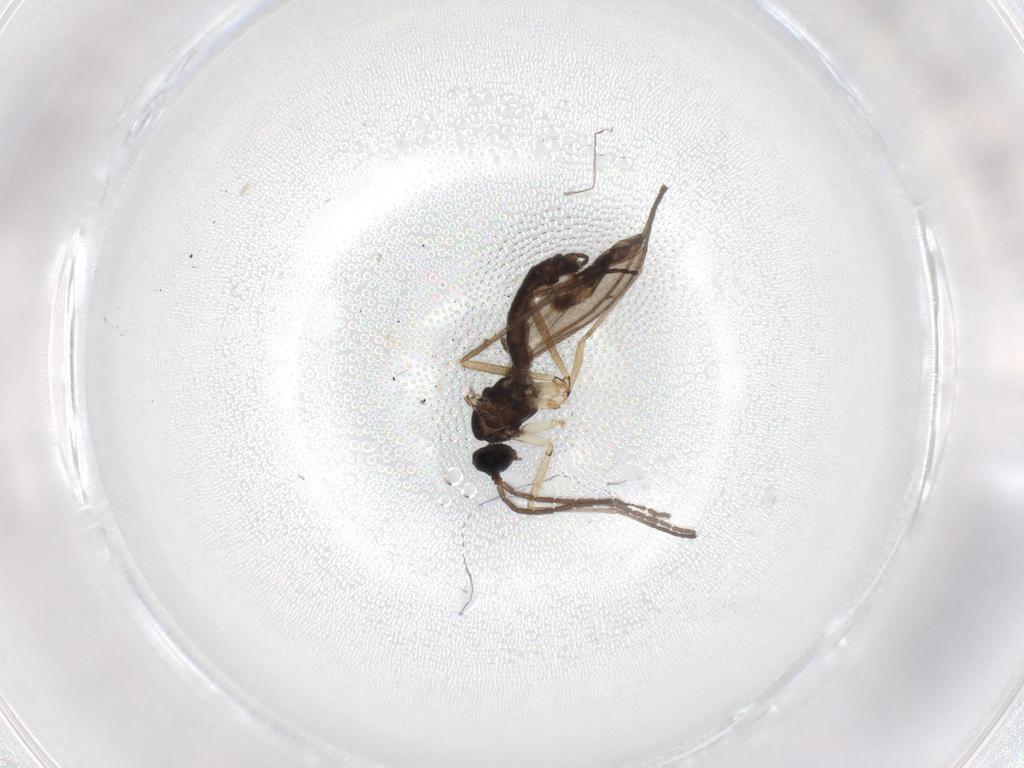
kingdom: Animalia
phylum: Arthropoda
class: Insecta
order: Diptera
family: Sciaridae
